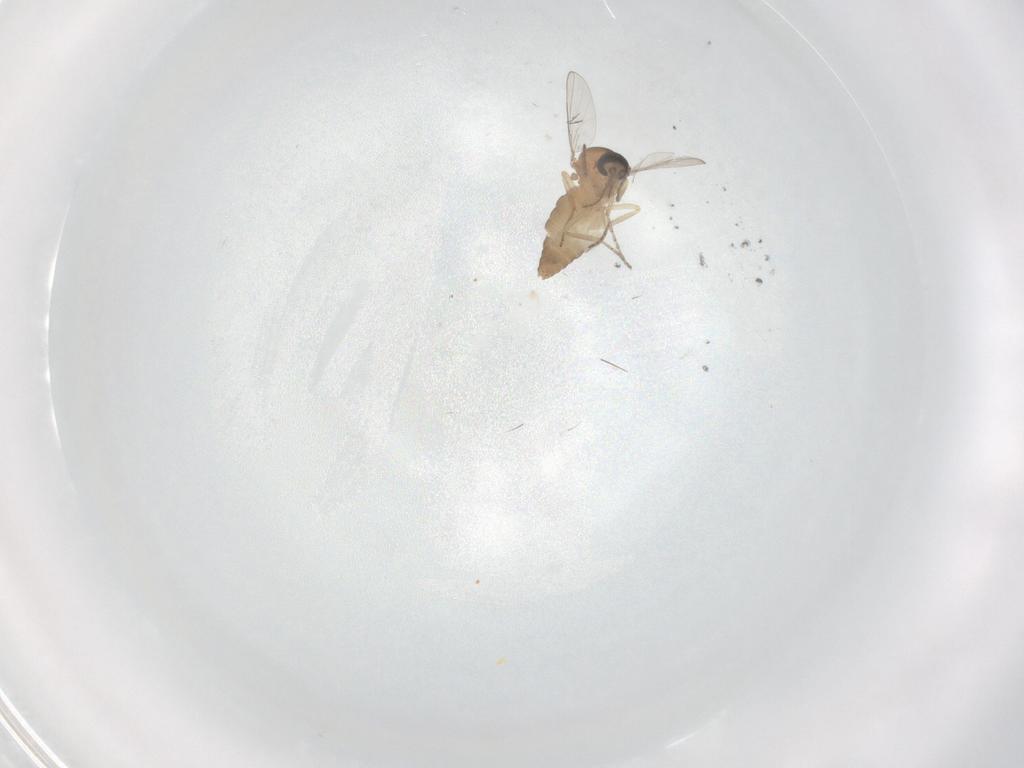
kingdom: Animalia
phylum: Arthropoda
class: Insecta
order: Diptera
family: Ceratopogonidae
